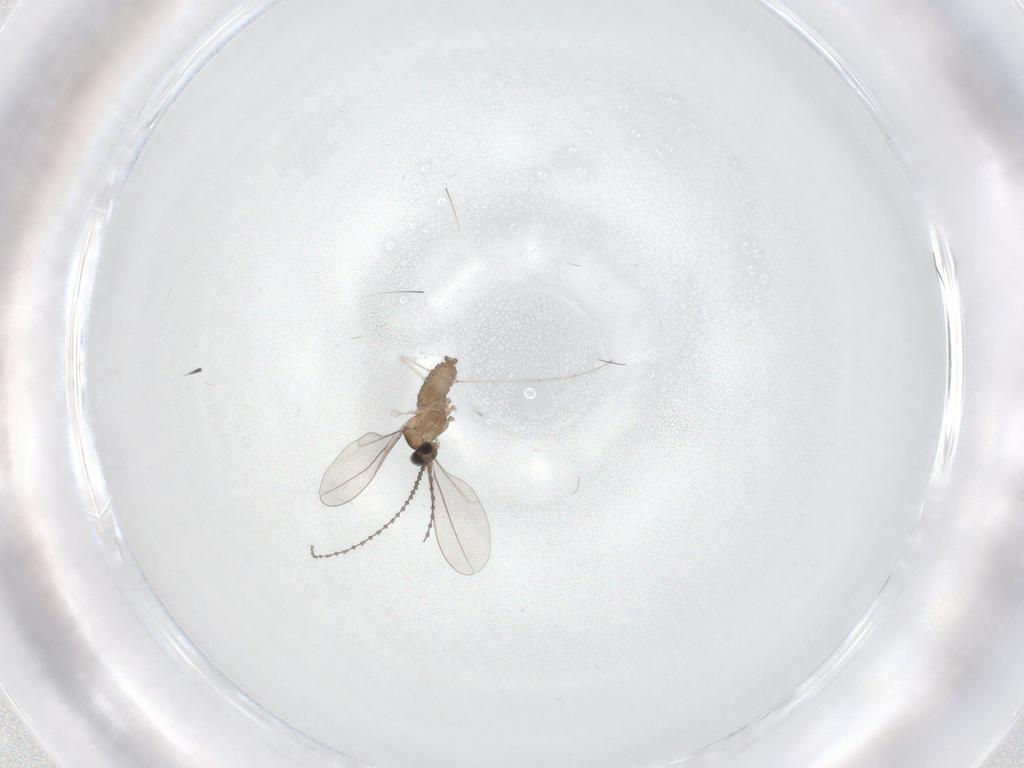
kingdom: Animalia
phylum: Arthropoda
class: Insecta
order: Diptera
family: Cecidomyiidae
